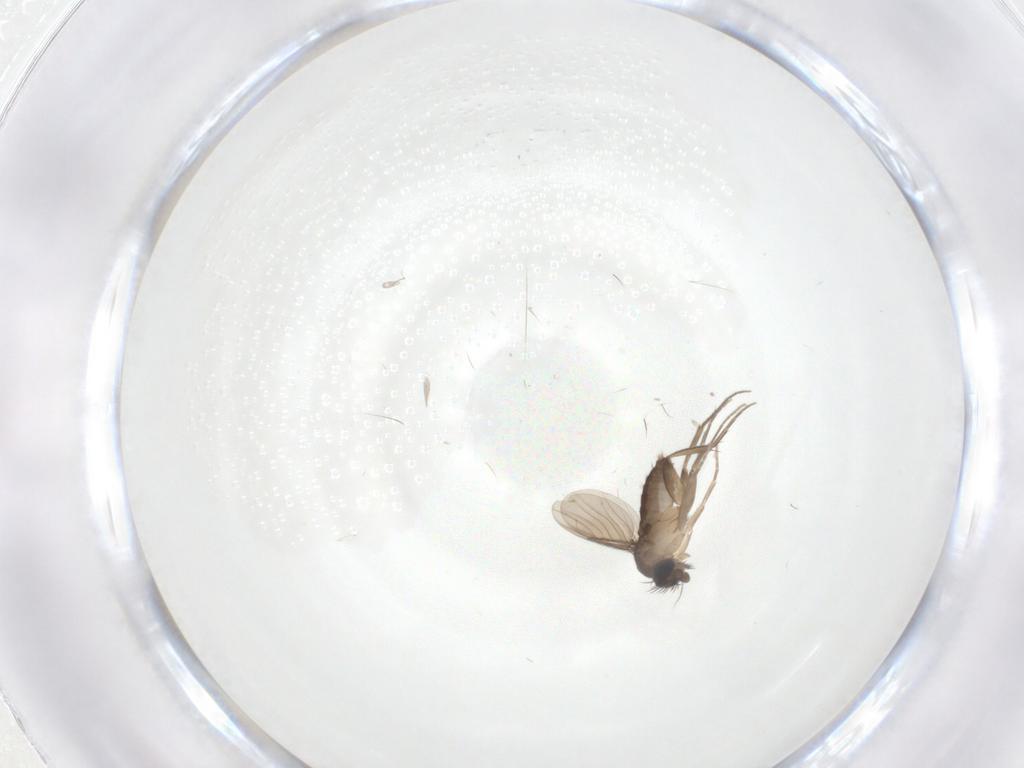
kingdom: Animalia
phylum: Arthropoda
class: Insecta
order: Diptera
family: Phoridae
